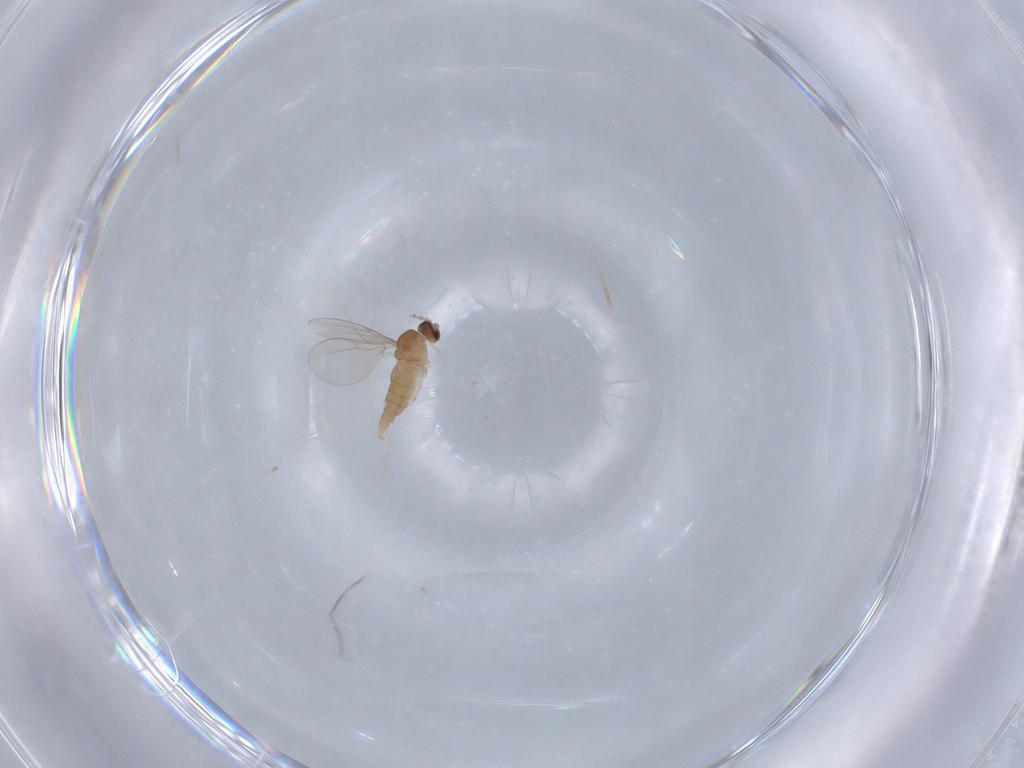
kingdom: Animalia
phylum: Arthropoda
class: Insecta
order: Diptera
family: Cecidomyiidae
